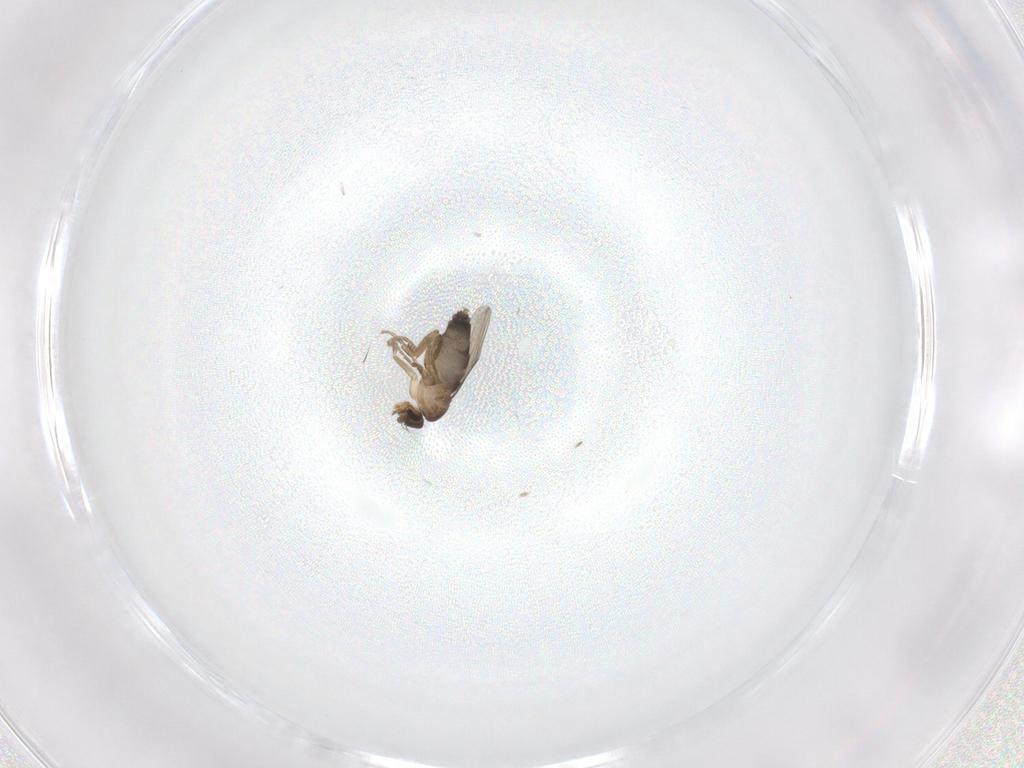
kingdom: Animalia
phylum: Arthropoda
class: Insecta
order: Diptera
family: Phoridae
